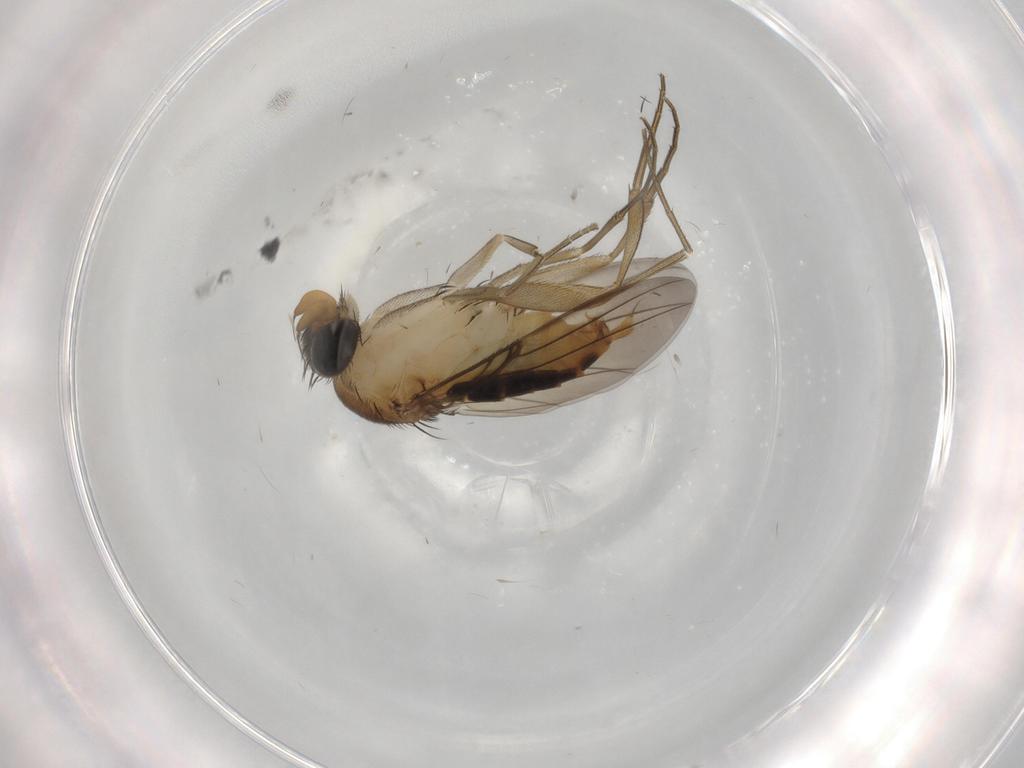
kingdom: Animalia
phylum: Arthropoda
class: Insecta
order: Diptera
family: Phoridae
